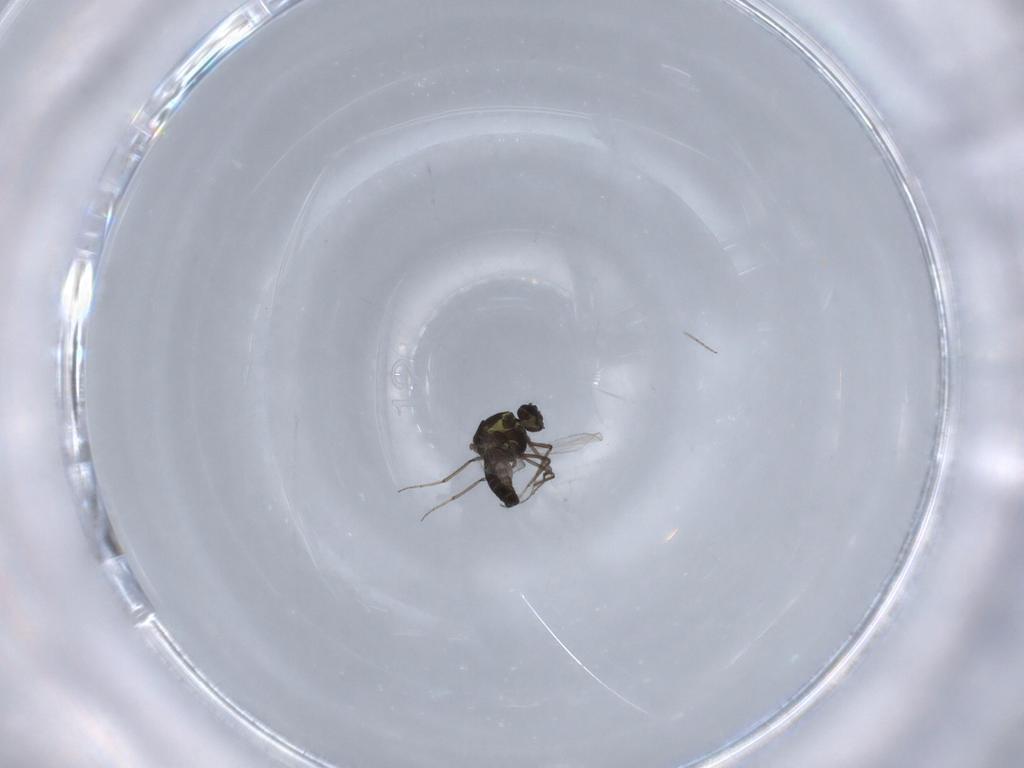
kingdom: Animalia
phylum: Arthropoda
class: Insecta
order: Diptera
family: Ceratopogonidae
